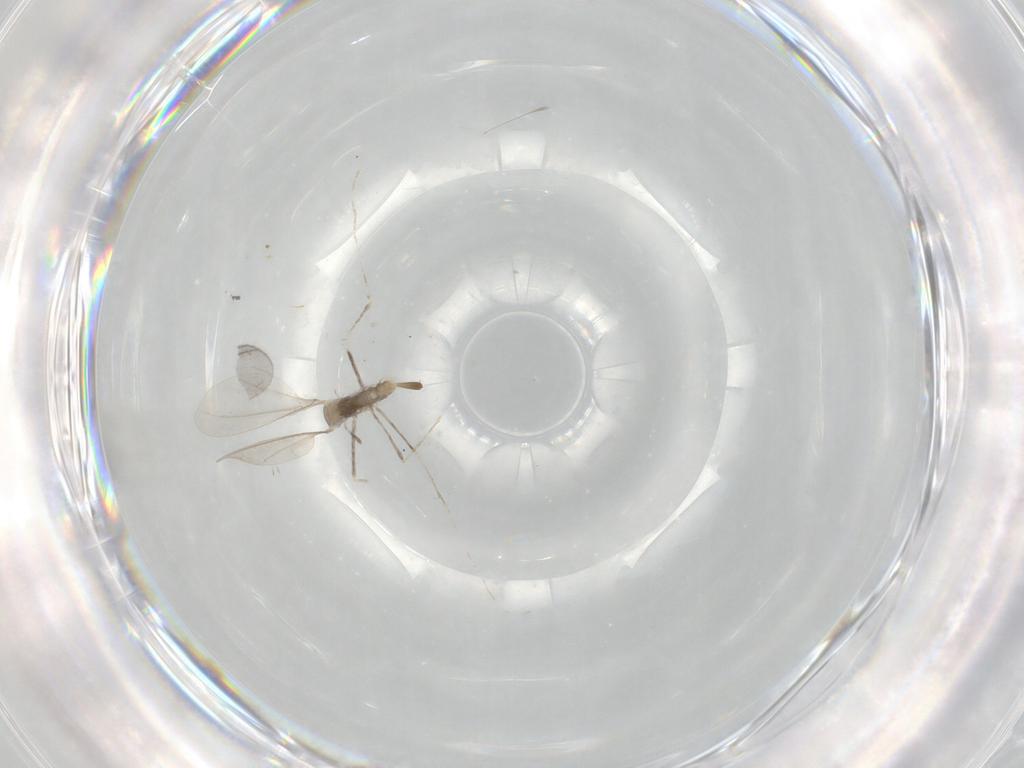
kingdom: Animalia
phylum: Arthropoda
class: Insecta
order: Diptera
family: Cecidomyiidae
